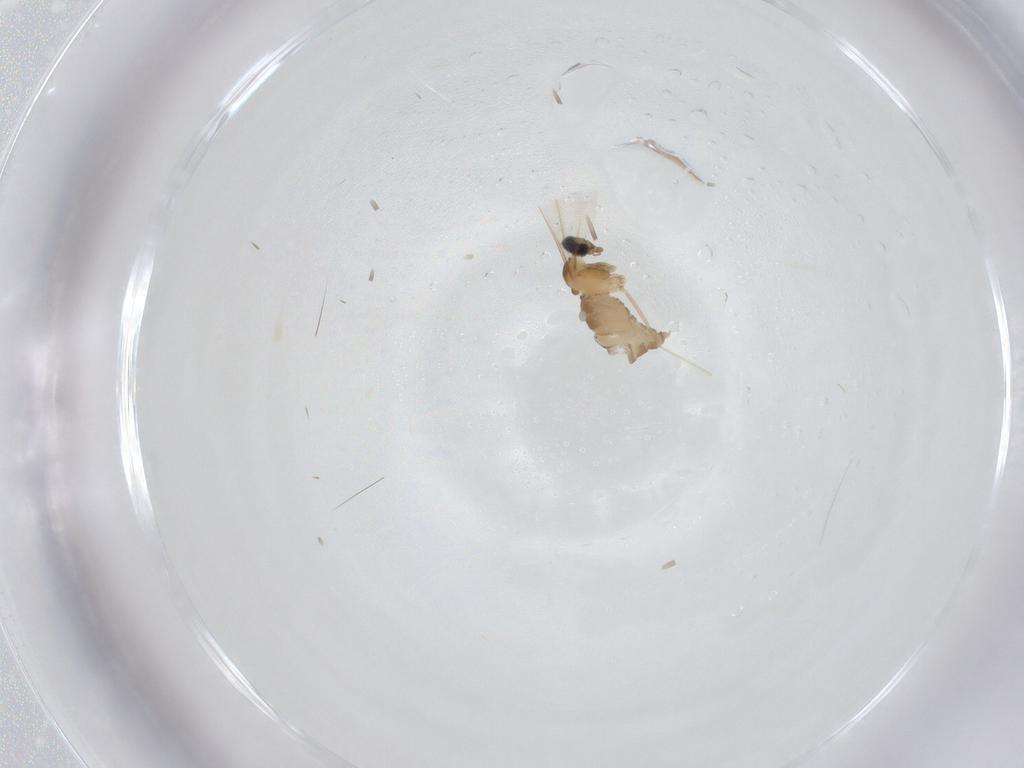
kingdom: Animalia
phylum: Arthropoda
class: Insecta
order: Diptera
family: Cecidomyiidae
